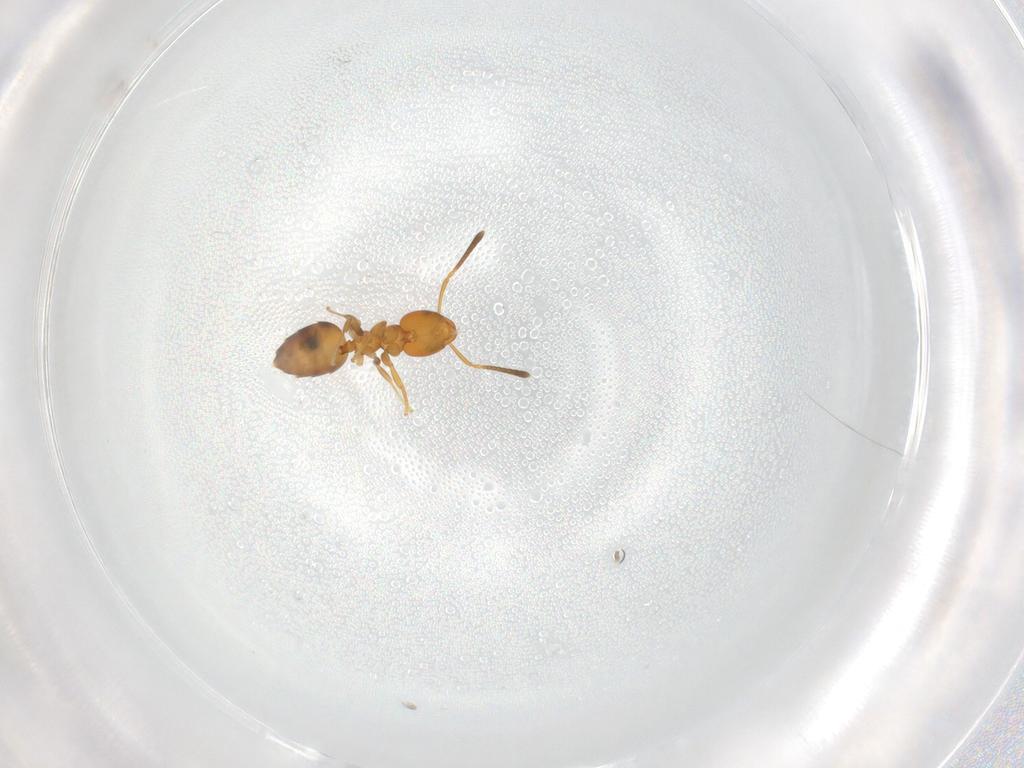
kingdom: Animalia
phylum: Arthropoda
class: Insecta
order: Hymenoptera
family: Formicidae
